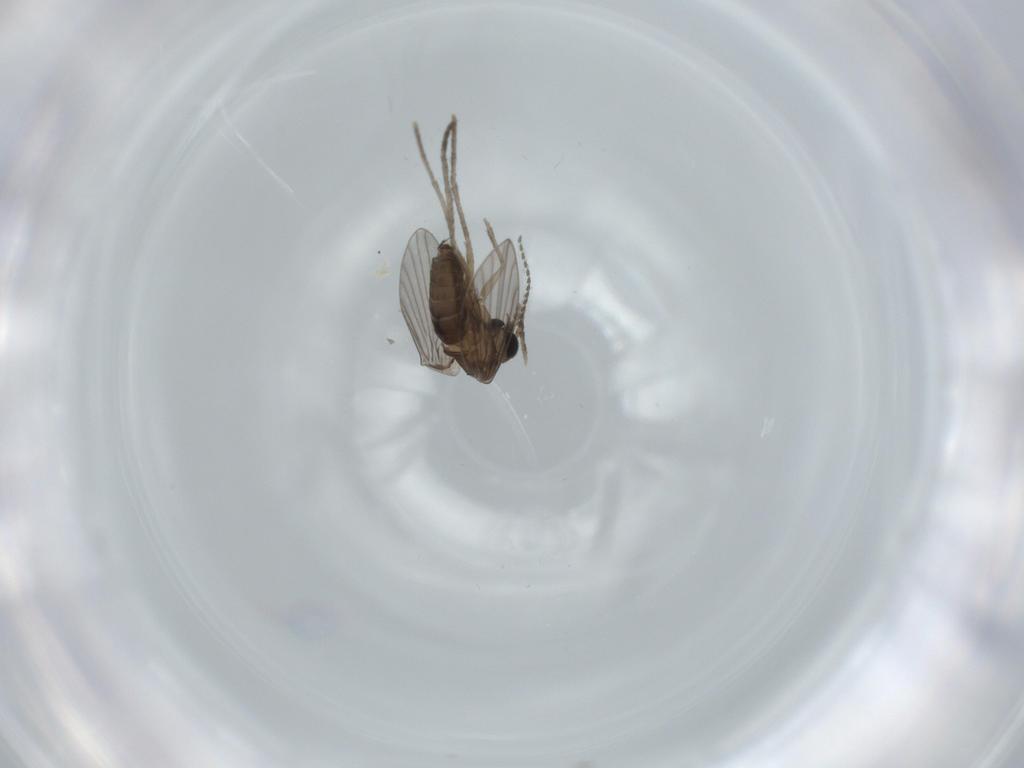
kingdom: Animalia
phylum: Arthropoda
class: Insecta
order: Diptera
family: Psychodidae
